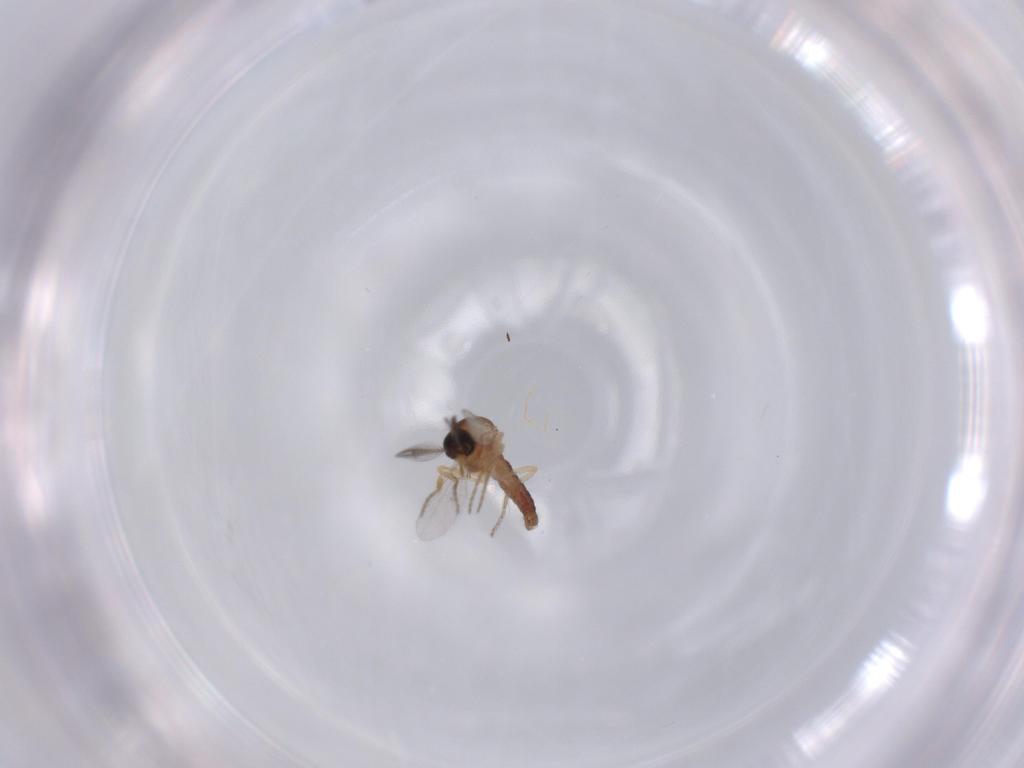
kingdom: Animalia
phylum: Arthropoda
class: Insecta
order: Diptera
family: Ceratopogonidae
